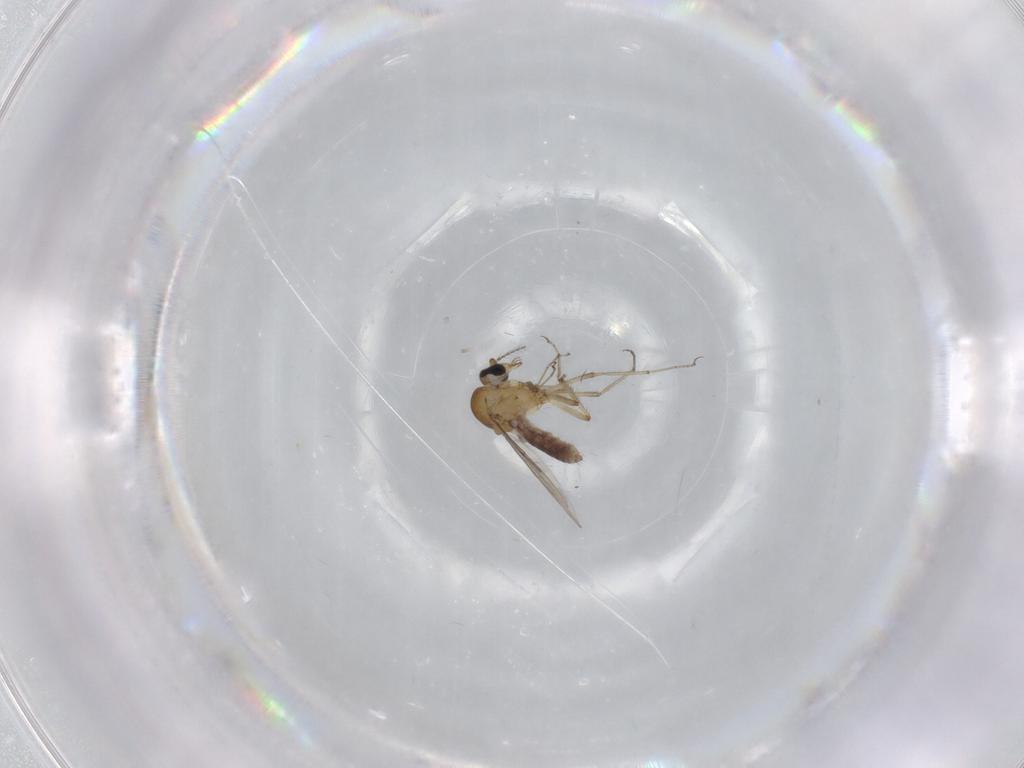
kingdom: Animalia
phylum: Arthropoda
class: Insecta
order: Diptera
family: Ceratopogonidae
